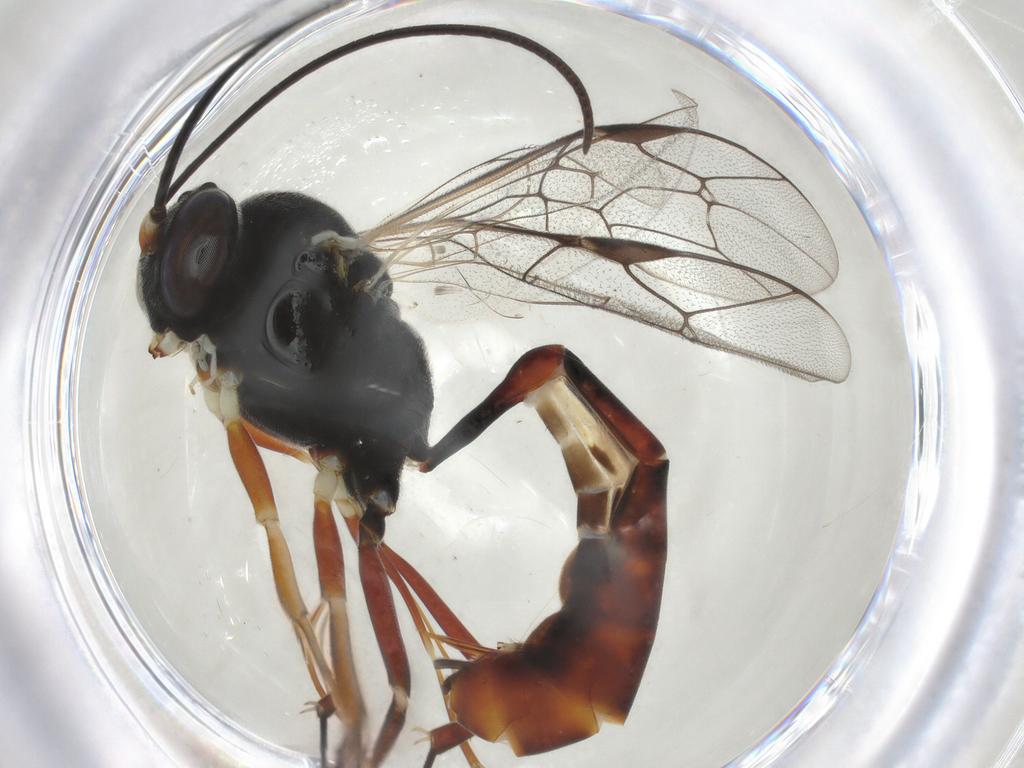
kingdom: Animalia
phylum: Arthropoda
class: Insecta
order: Hymenoptera
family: Ichneumonidae
